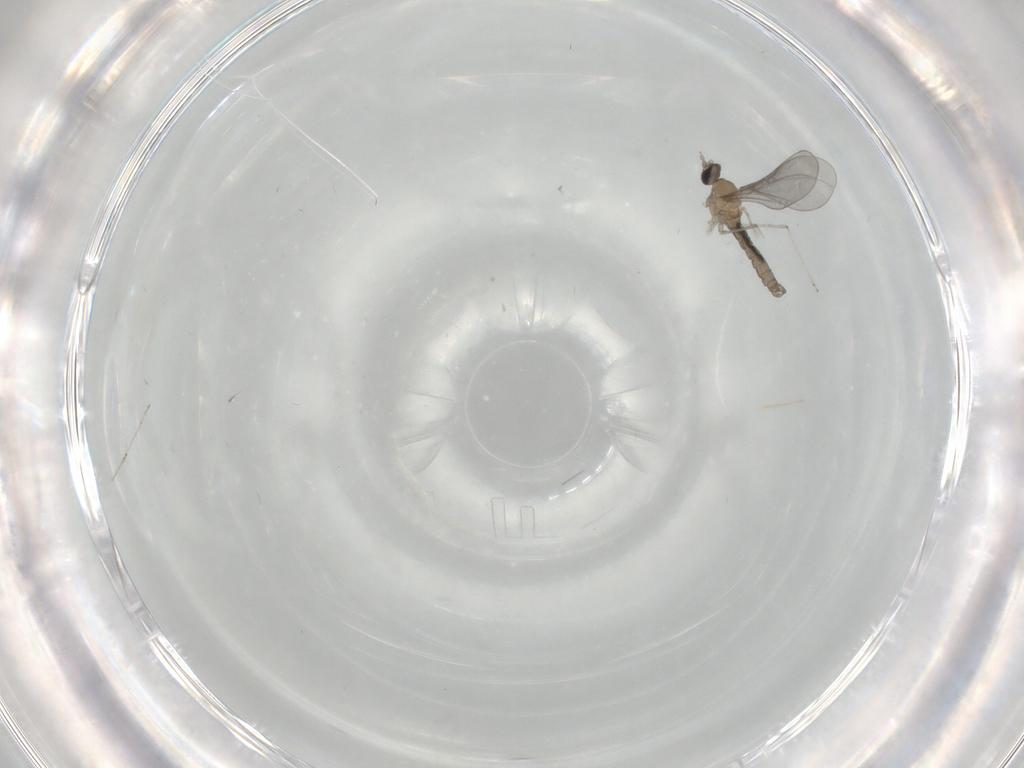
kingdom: Animalia
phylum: Arthropoda
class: Insecta
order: Diptera
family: Cecidomyiidae
